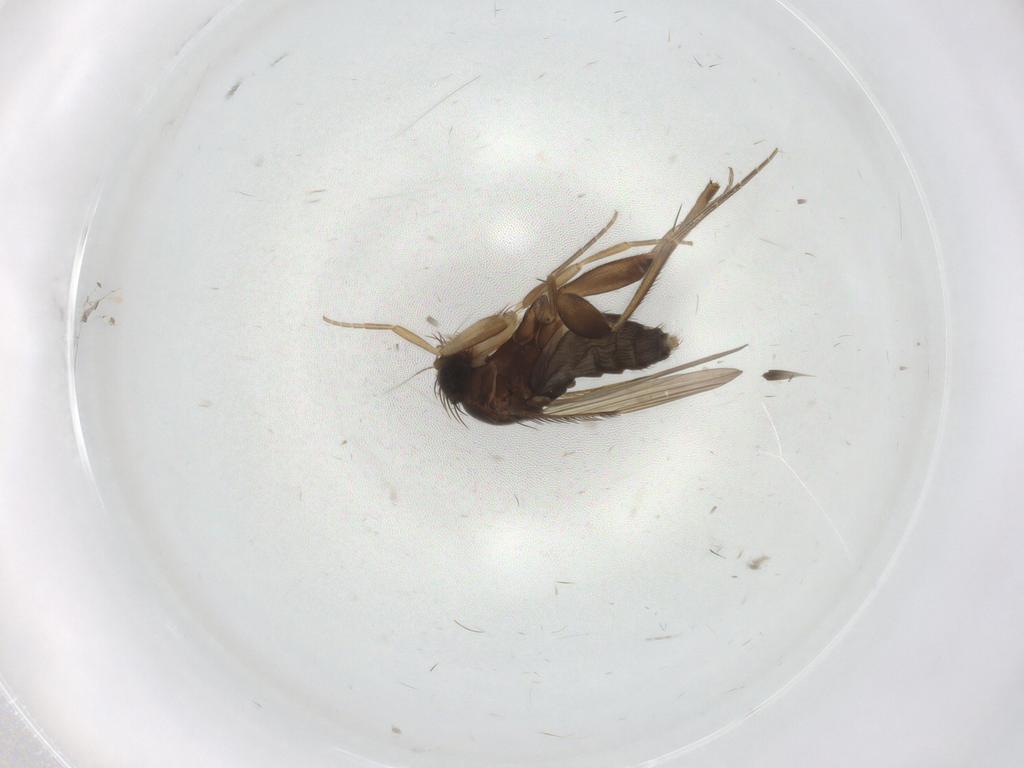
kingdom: Animalia
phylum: Arthropoda
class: Insecta
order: Diptera
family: Phoridae
